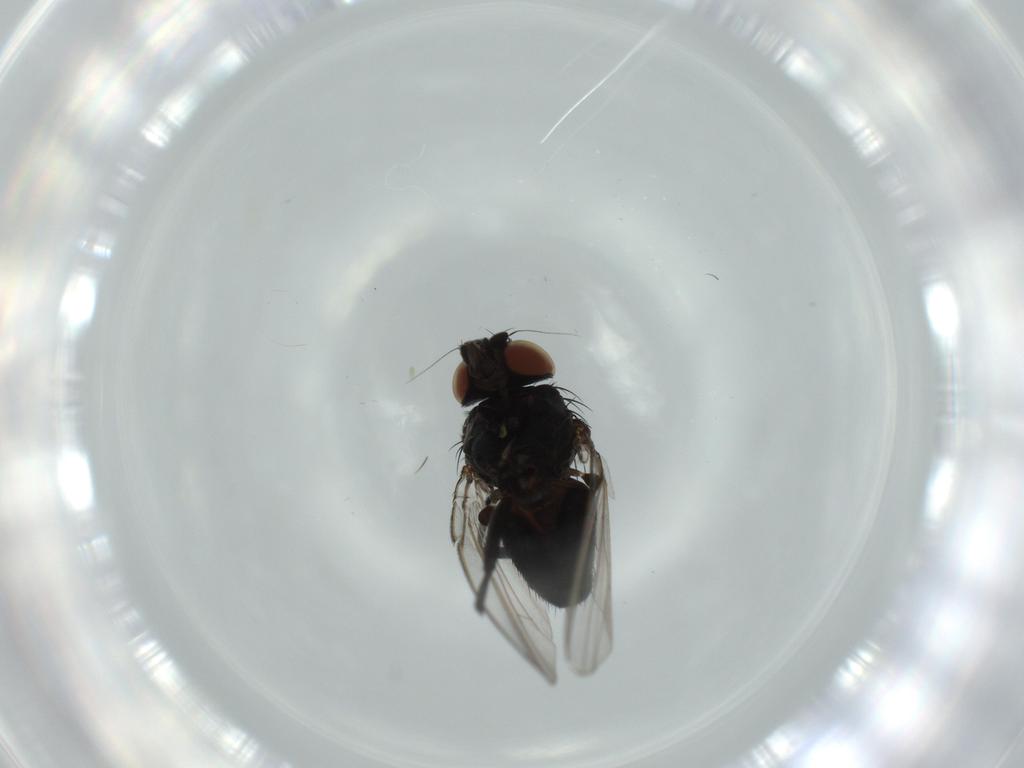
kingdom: Animalia
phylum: Arthropoda
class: Insecta
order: Diptera
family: Milichiidae
